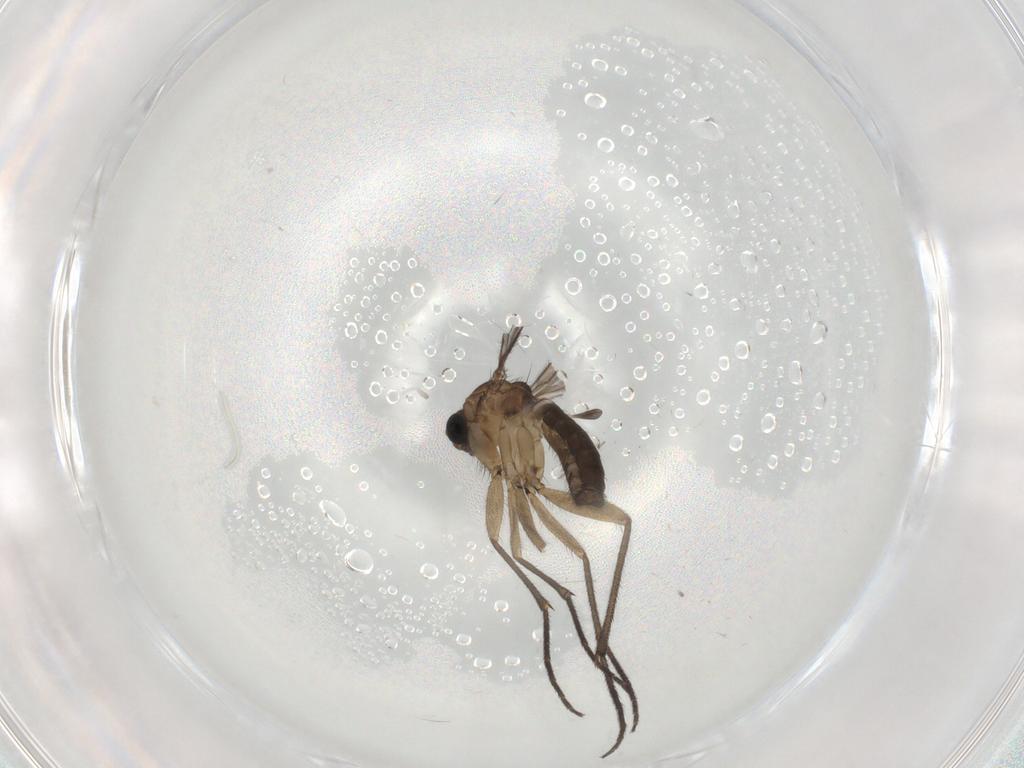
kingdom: Animalia
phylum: Arthropoda
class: Insecta
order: Diptera
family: Sciaridae
